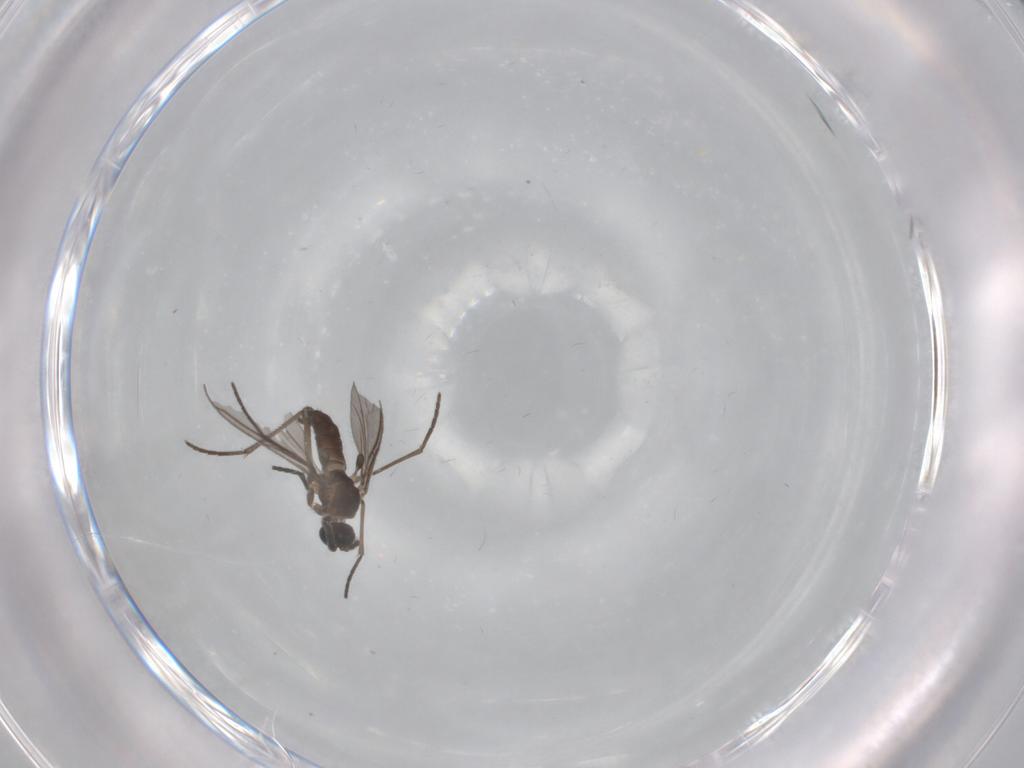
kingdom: Animalia
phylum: Arthropoda
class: Insecta
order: Diptera
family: Sciaridae
